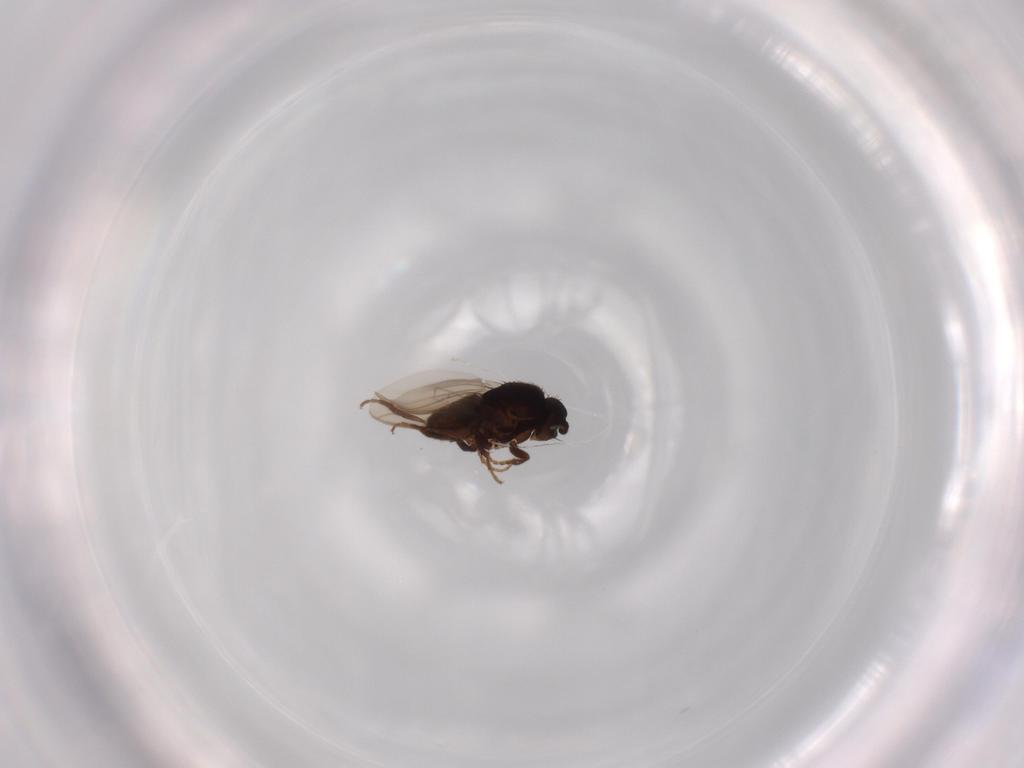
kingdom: Animalia
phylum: Arthropoda
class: Insecta
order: Diptera
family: Sphaeroceridae
